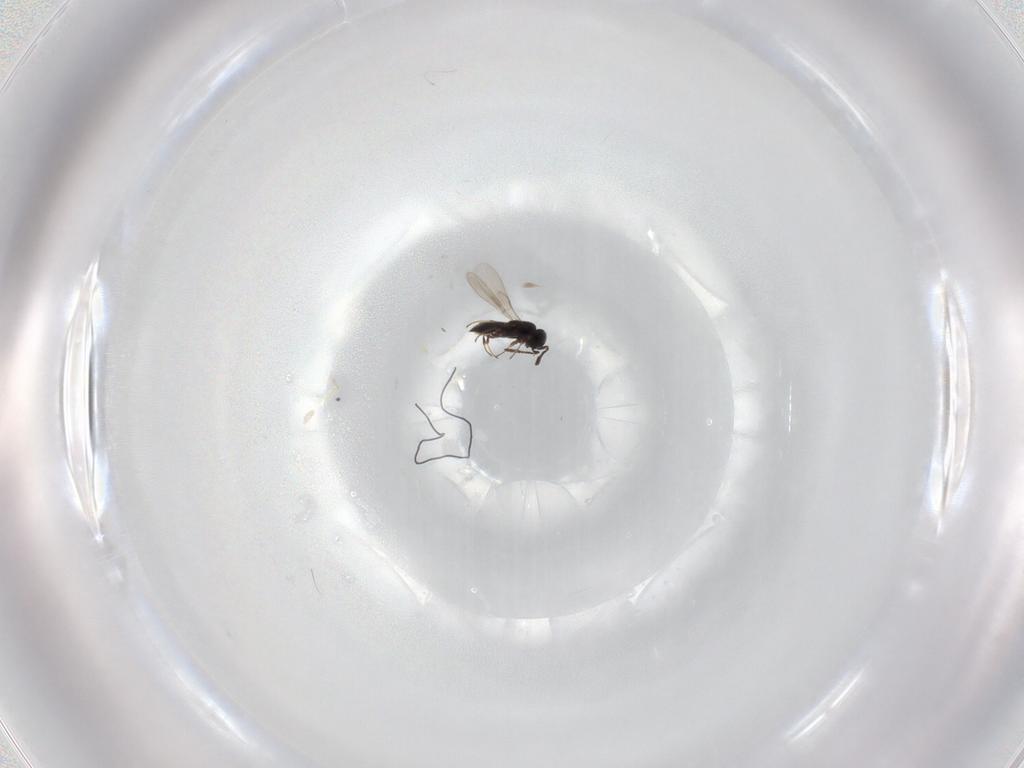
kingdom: Animalia
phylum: Arthropoda
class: Insecta
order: Hymenoptera
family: Scelionidae
